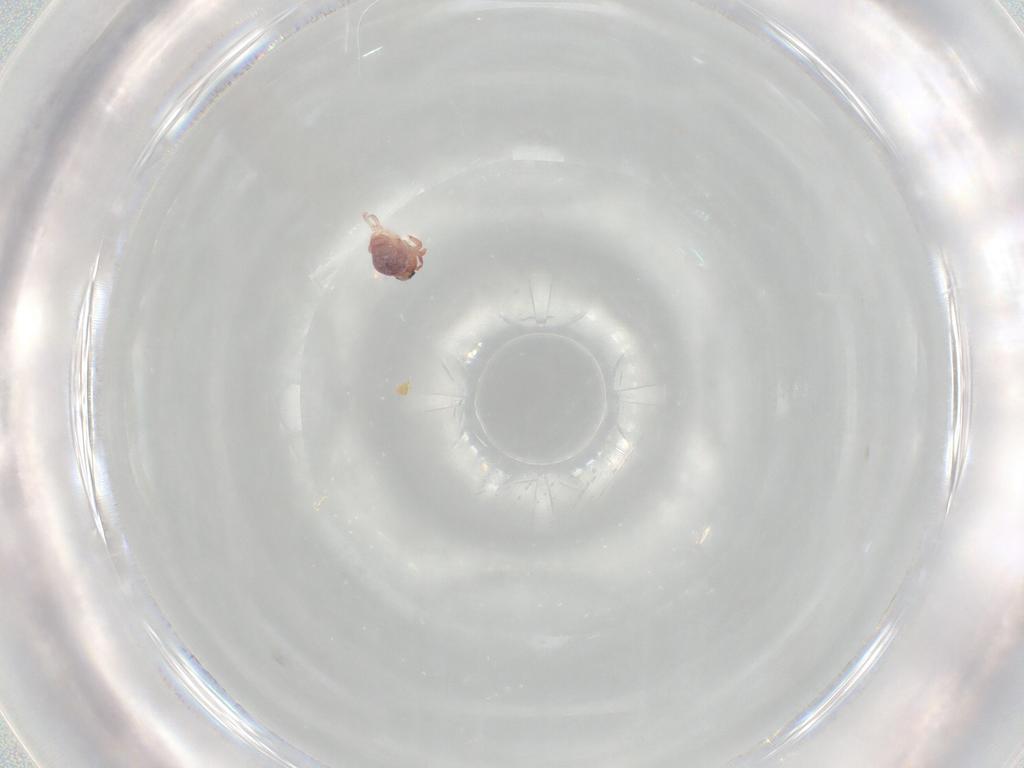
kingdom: Animalia
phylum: Arthropoda
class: Collembola
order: Symphypleona
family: Sminthurididae
